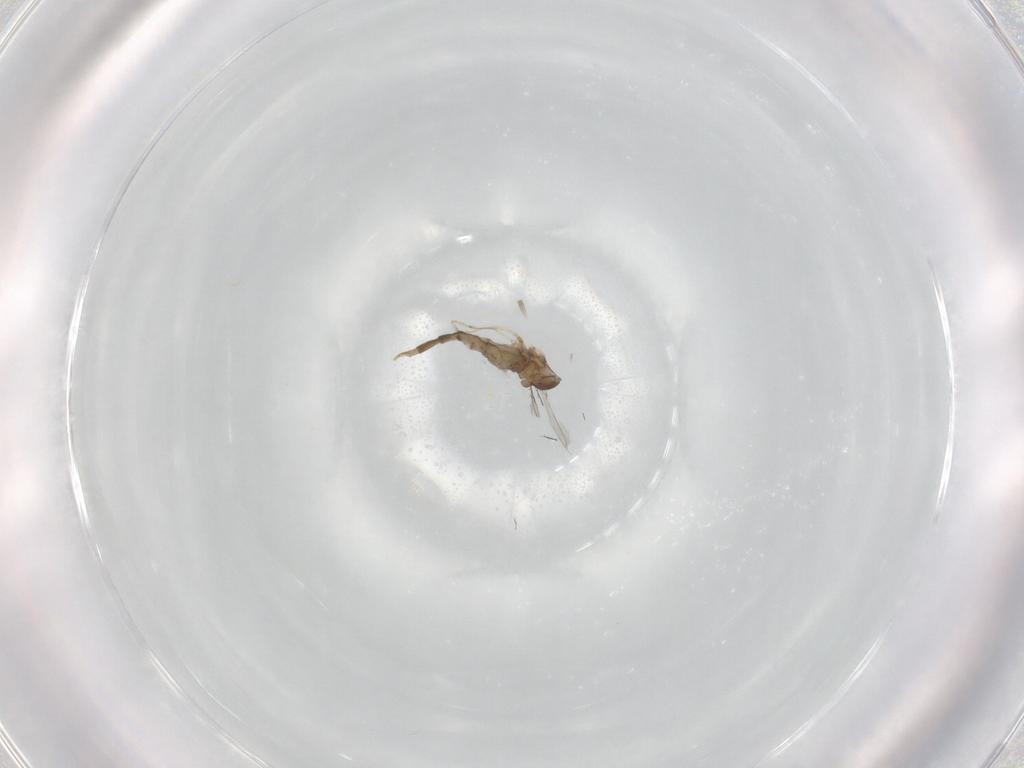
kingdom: Animalia
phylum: Arthropoda
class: Insecta
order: Diptera
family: Cecidomyiidae
